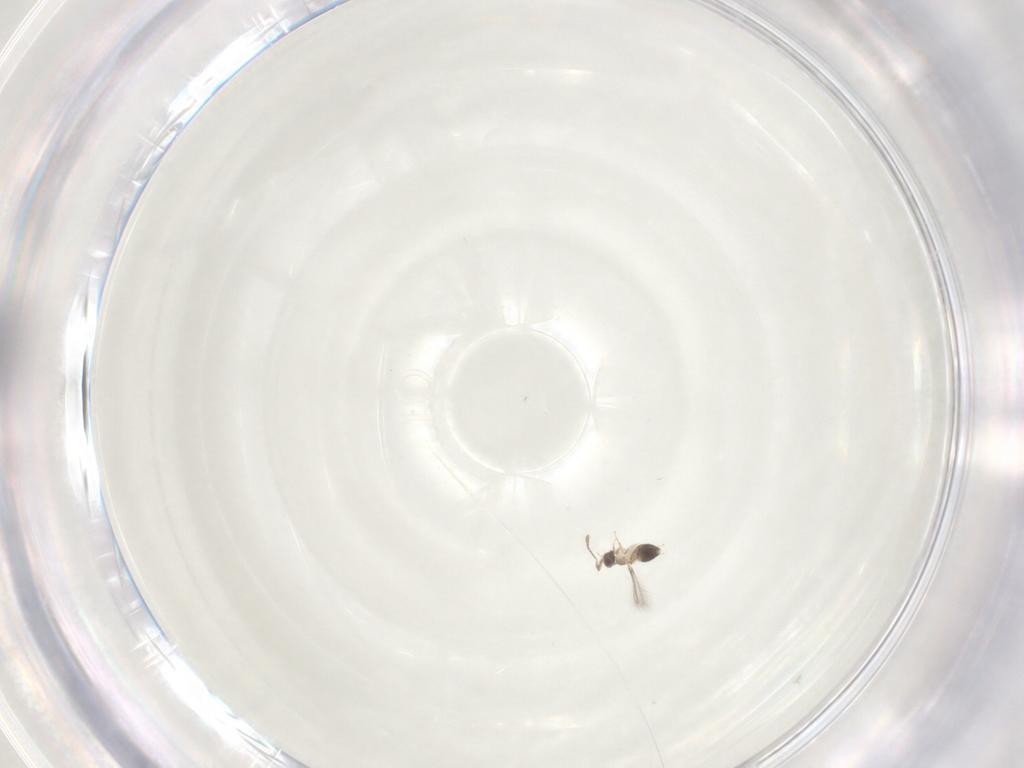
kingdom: Animalia
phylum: Arthropoda
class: Insecta
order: Hymenoptera
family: Mymaridae
